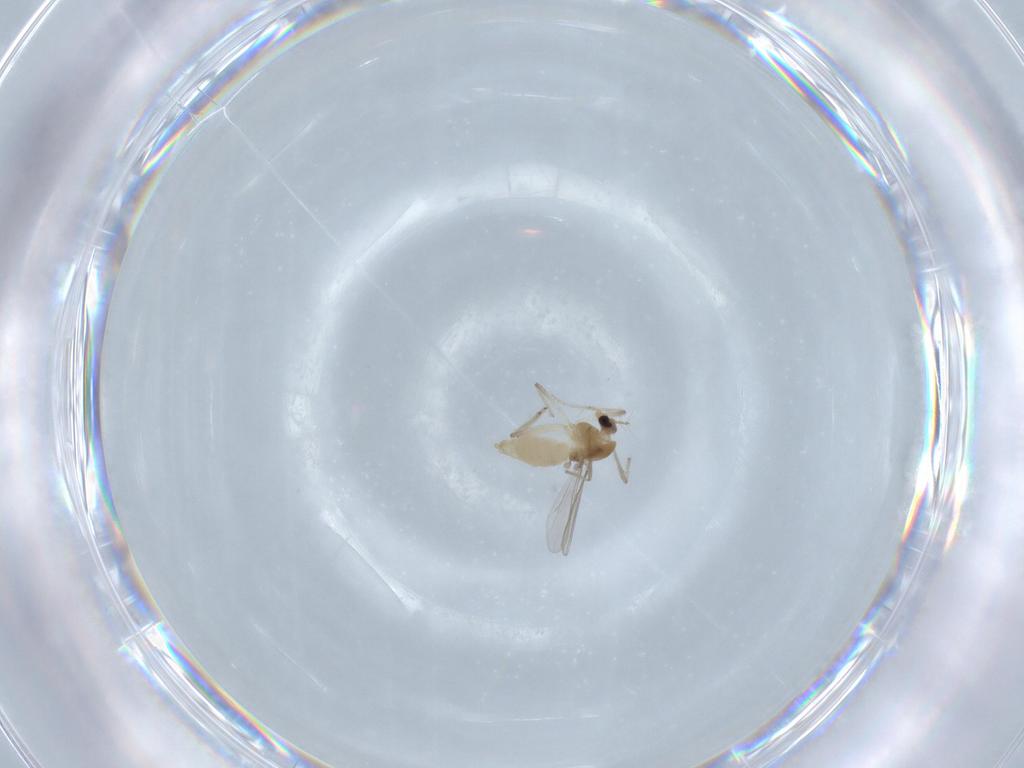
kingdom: Animalia
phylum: Arthropoda
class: Insecta
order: Diptera
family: Chironomidae
